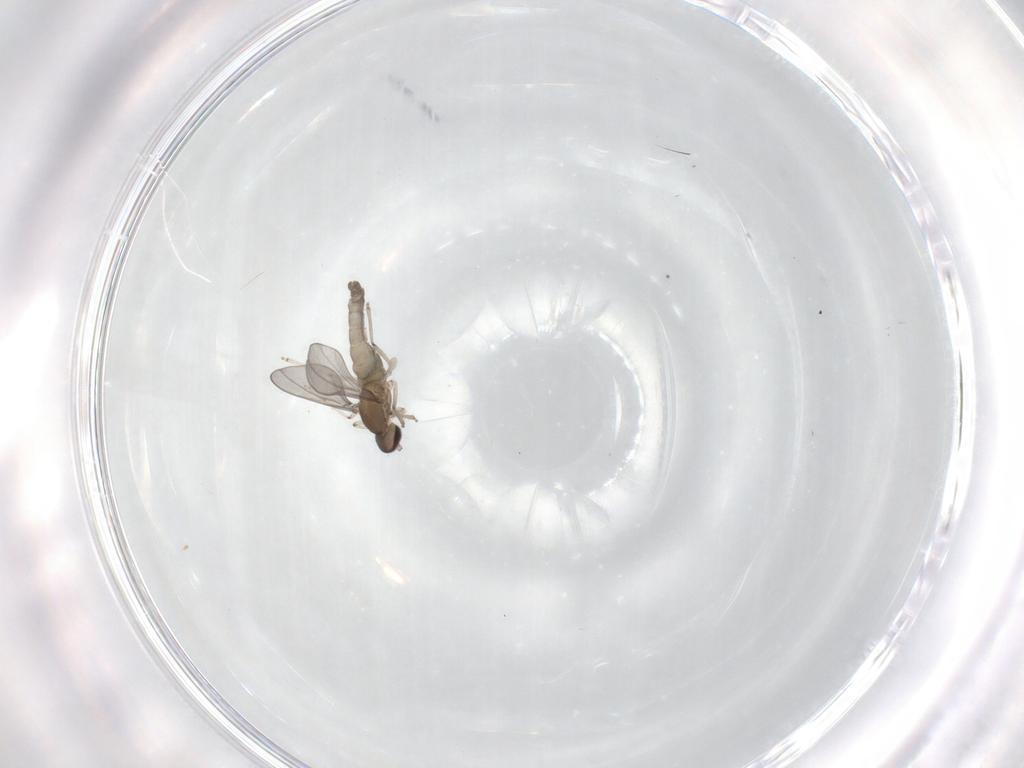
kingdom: Animalia
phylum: Arthropoda
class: Insecta
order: Diptera
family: Cecidomyiidae
